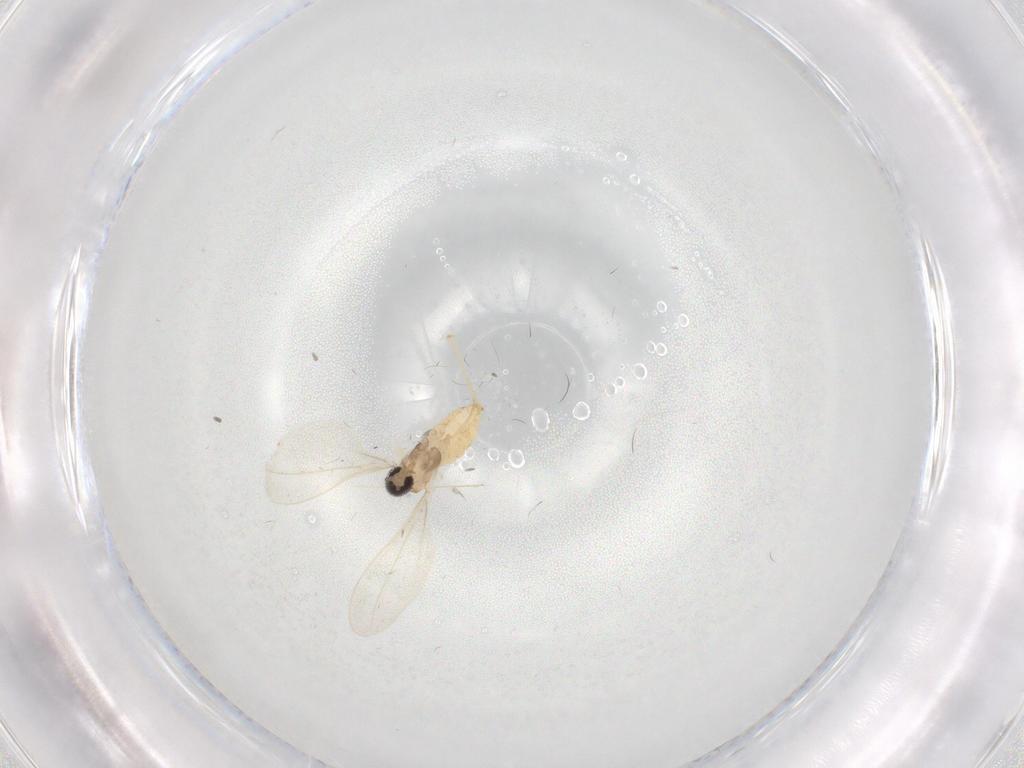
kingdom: Animalia
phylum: Arthropoda
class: Insecta
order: Diptera
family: Cecidomyiidae
